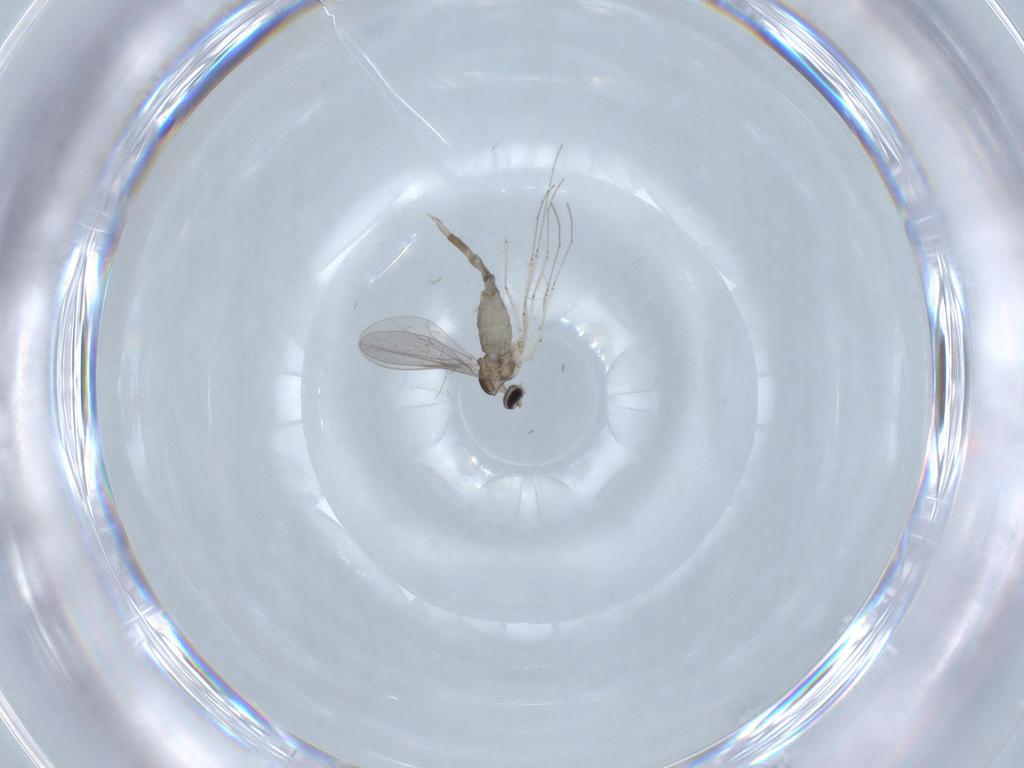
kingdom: Animalia
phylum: Arthropoda
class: Insecta
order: Diptera
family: Cecidomyiidae
